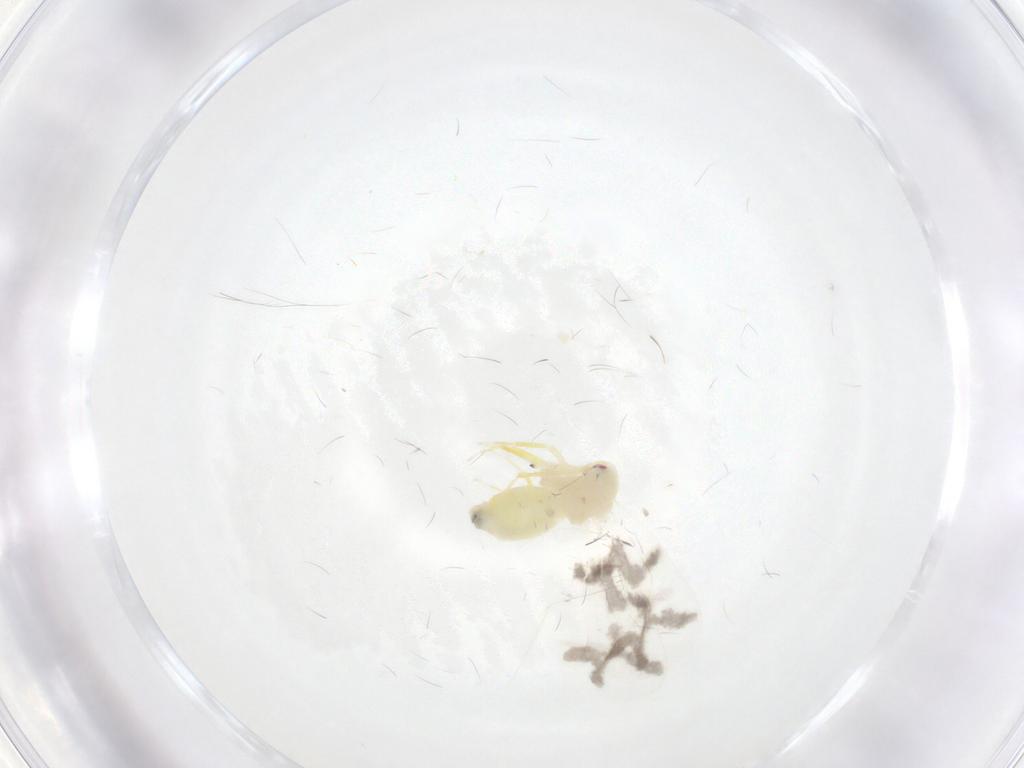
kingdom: Animalia
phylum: Arthropoda
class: Insecta
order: Hemiptera
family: Aleyrodidae
